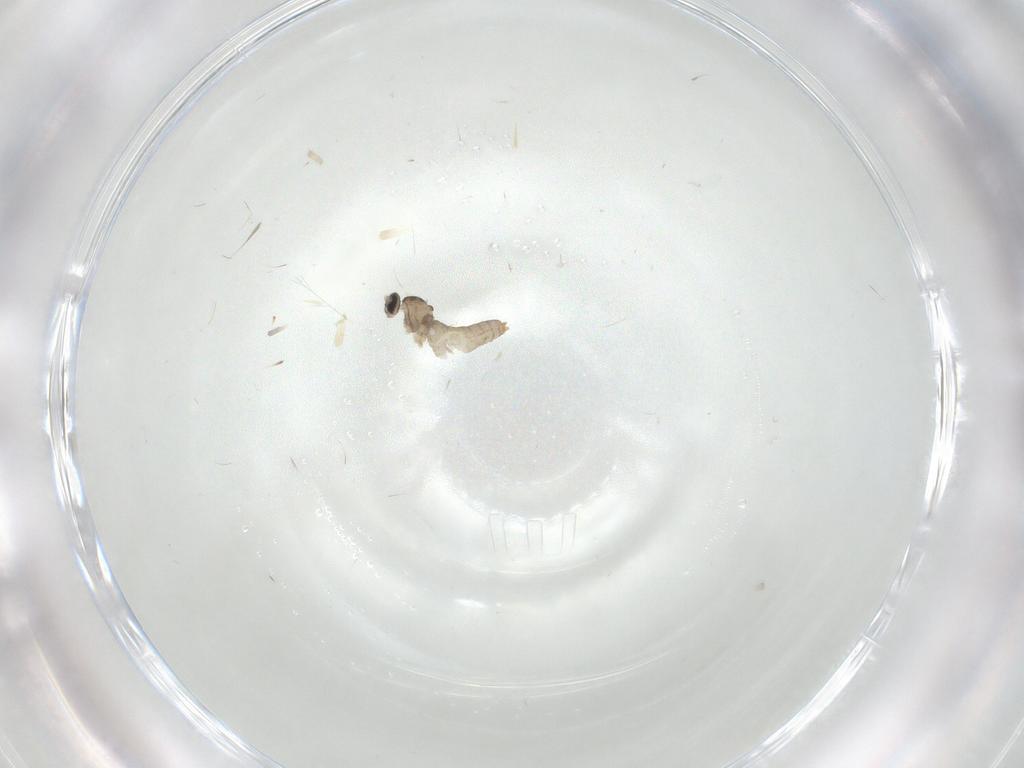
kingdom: Animalia
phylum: Arthropoda
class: Insecta
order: Diptera
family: Cecidomyiidae
